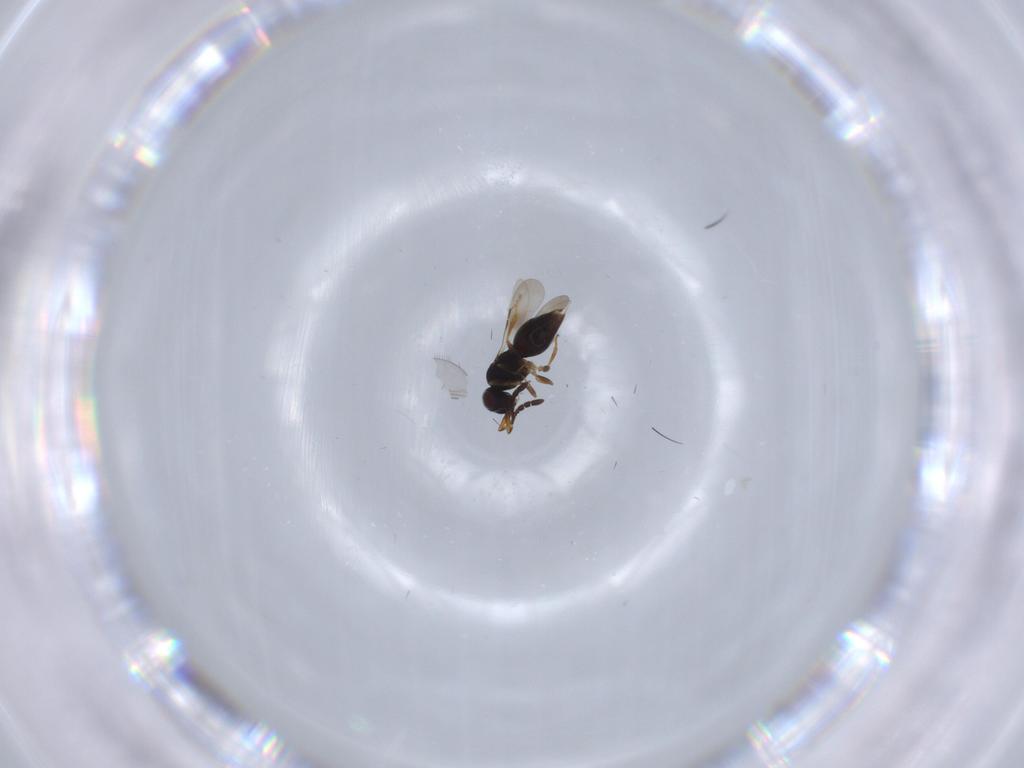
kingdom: Animalia
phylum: Arthropoda
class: Insecta
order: Hymenoptera
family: Ceraphronidae
